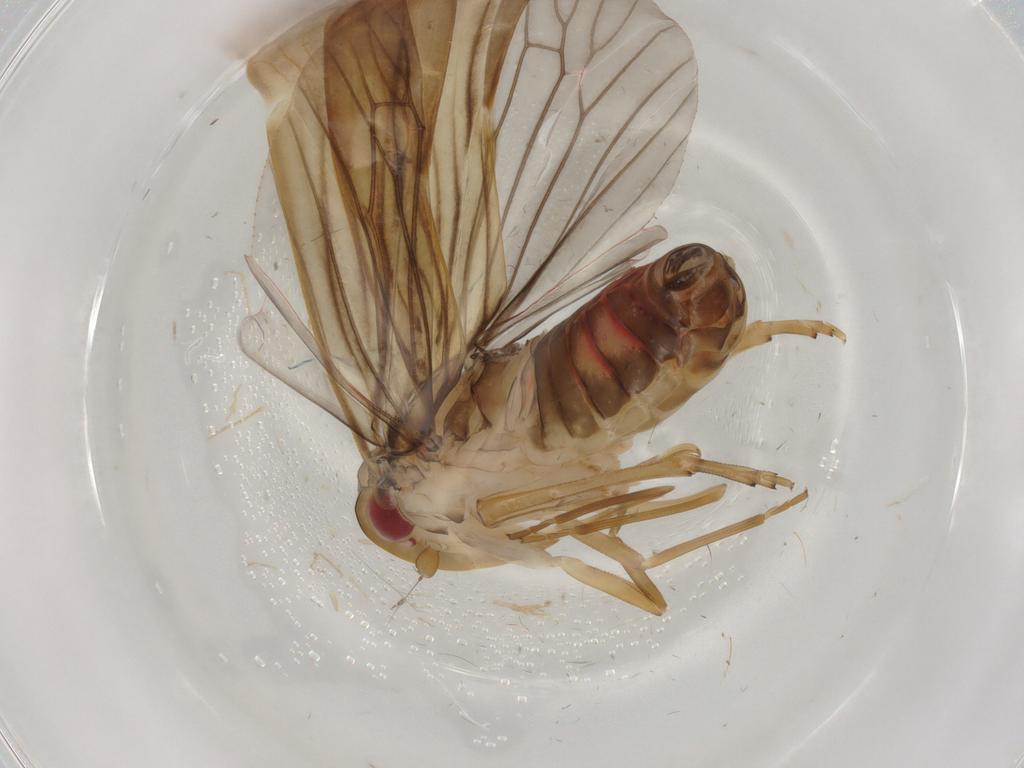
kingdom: Animalia
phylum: Arthropoda
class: Insecta
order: Hemiptera
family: Achilidae
